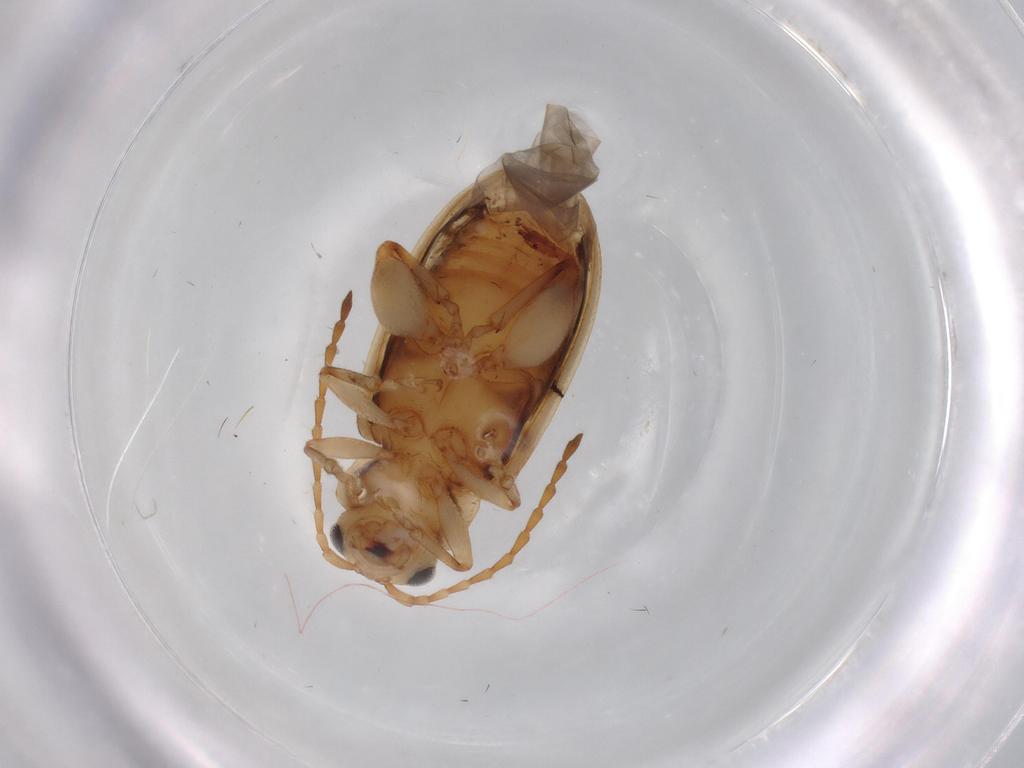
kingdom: Animalia
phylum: Arthropoda
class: Insecta
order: Coleoptera
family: Chrysomelidae
